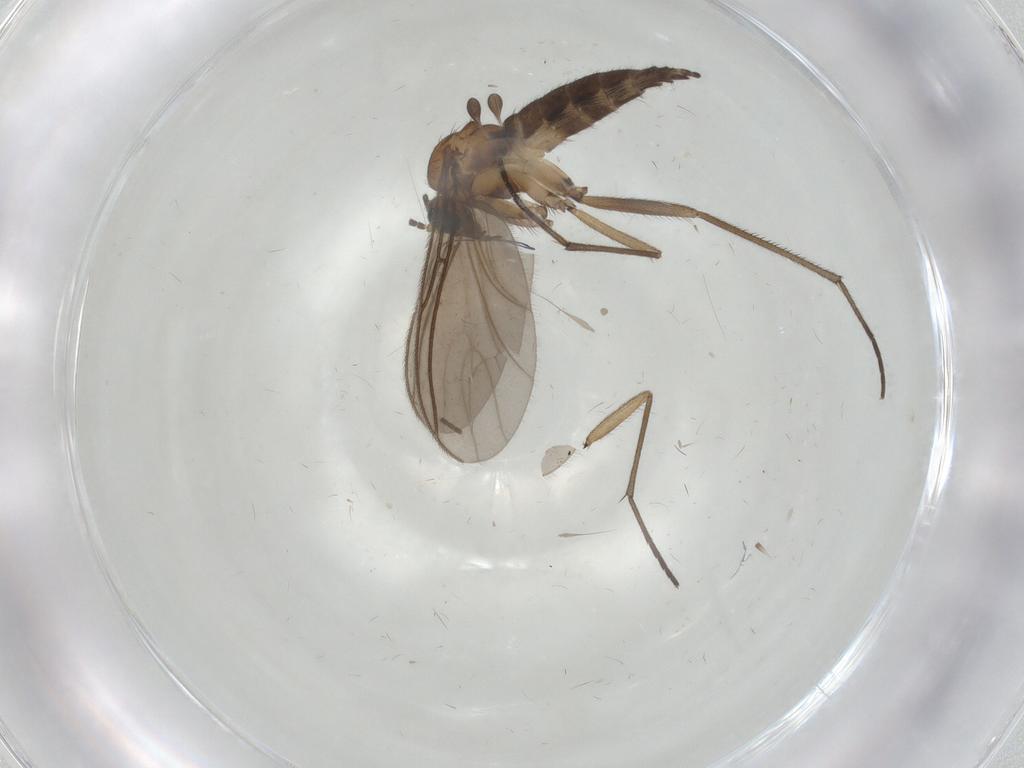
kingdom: Animalia
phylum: Arthropoda
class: Insecta
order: Diptera
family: Sciaridae
